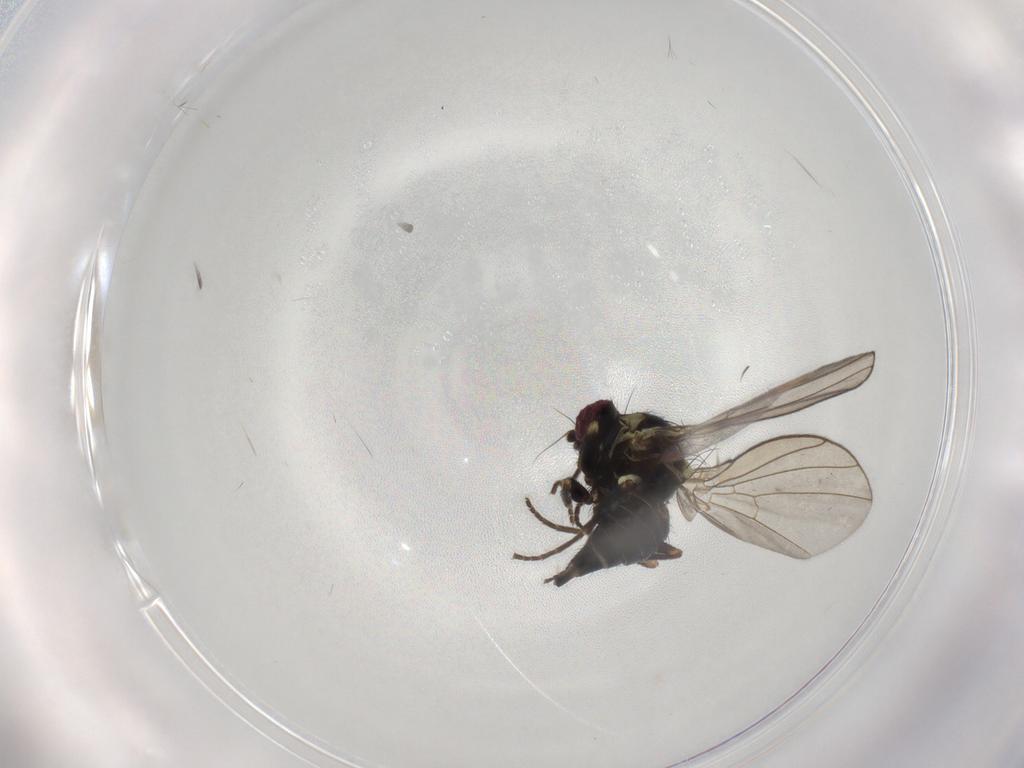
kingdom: Animalia
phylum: Arthropoda
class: Insecta
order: Diptera
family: Agromyzidae
